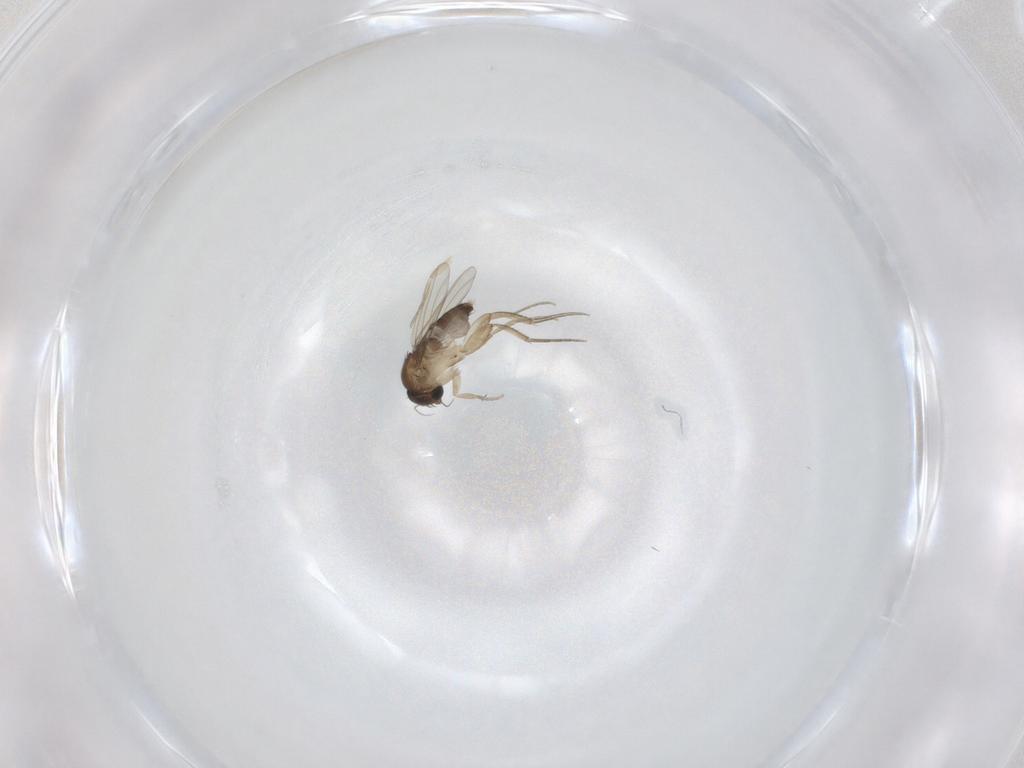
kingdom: Animalia
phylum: Arthropoda
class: Insecta
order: Diptera
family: Phoridae
